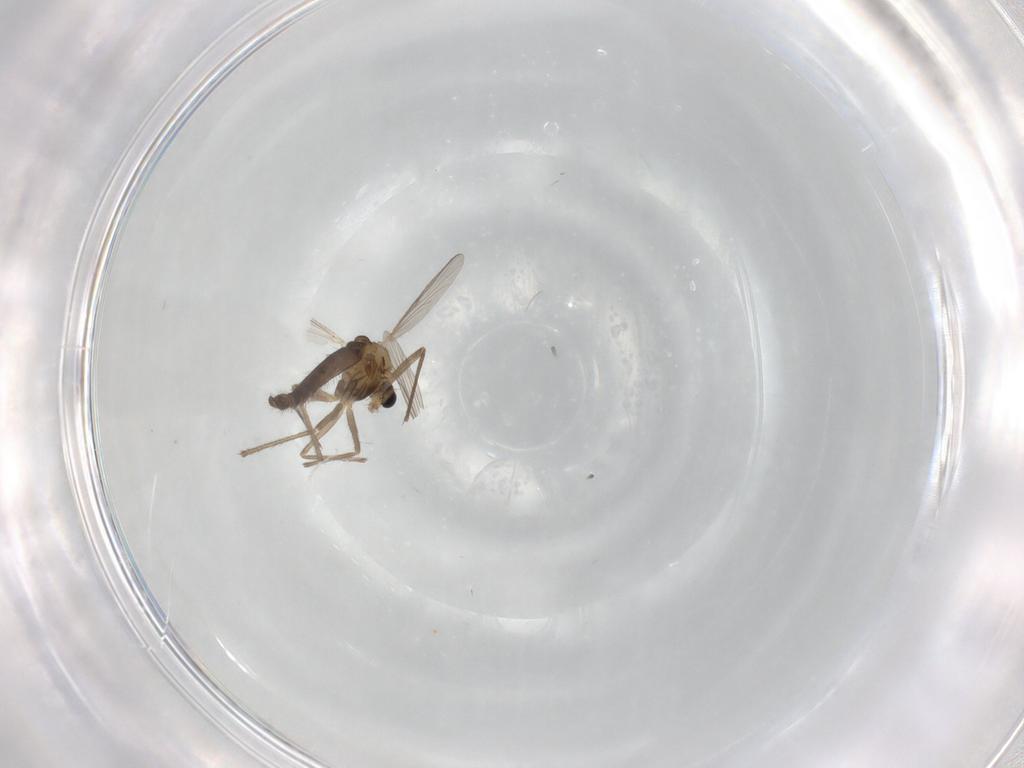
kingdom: Animalia
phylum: Arthropoda
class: Insecta
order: Diptera
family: Chironomidae
